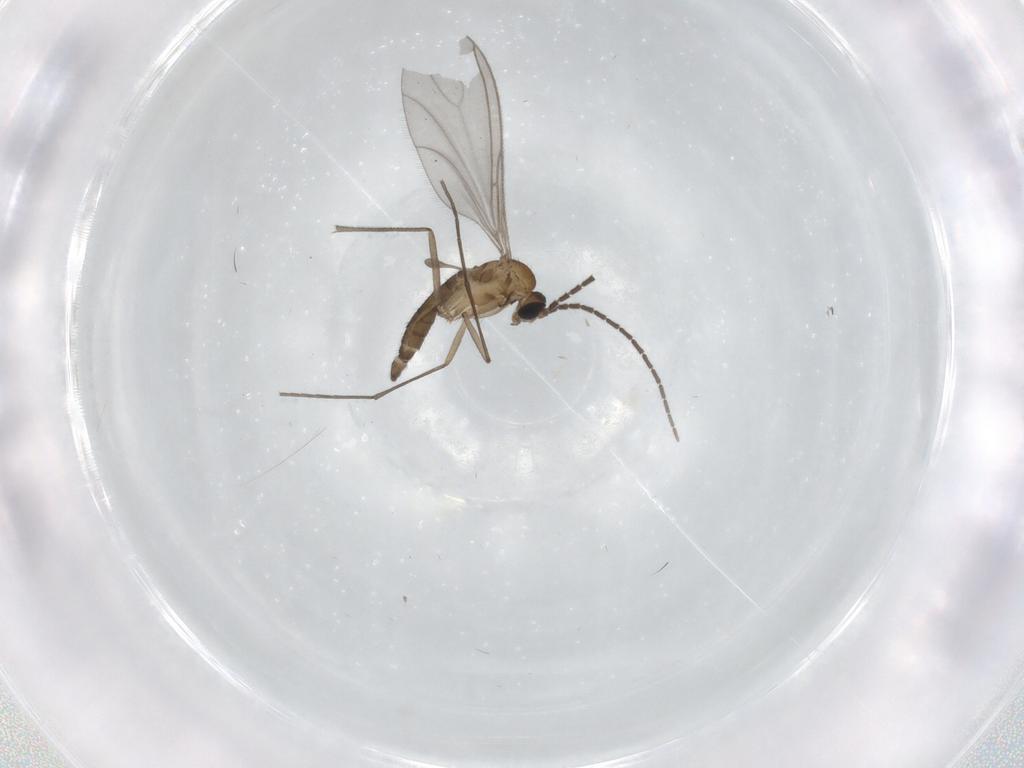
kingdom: Animalia
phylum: Arthropoda
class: Insecta
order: Diptera
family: Sciaridae
